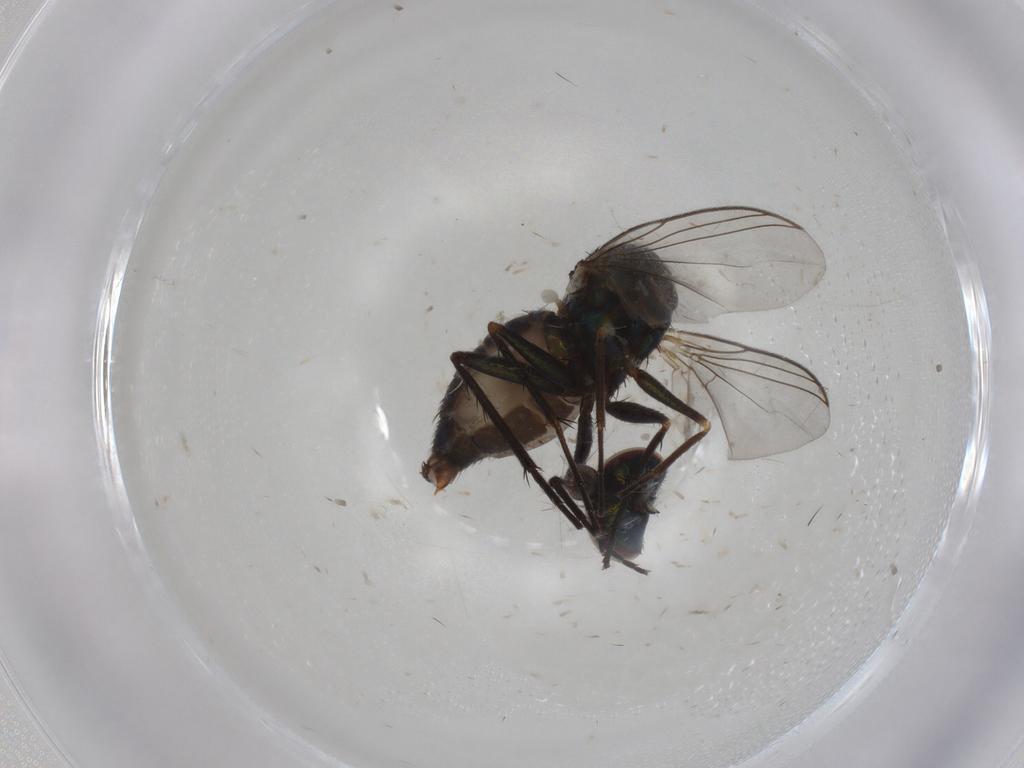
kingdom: Animalia
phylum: Arthropoda
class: Insecta
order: Diptera
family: Dolichopodidae
